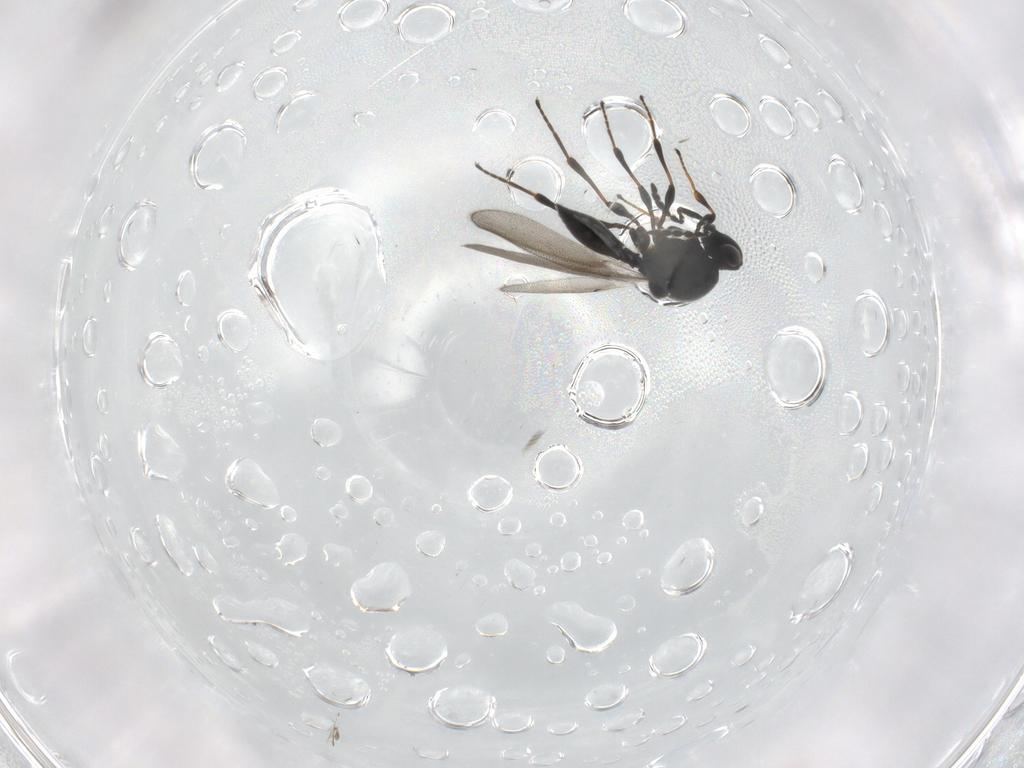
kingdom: Animalia
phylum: Arthropoda
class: Insecta
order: Hymenoptera
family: Platygastridae
